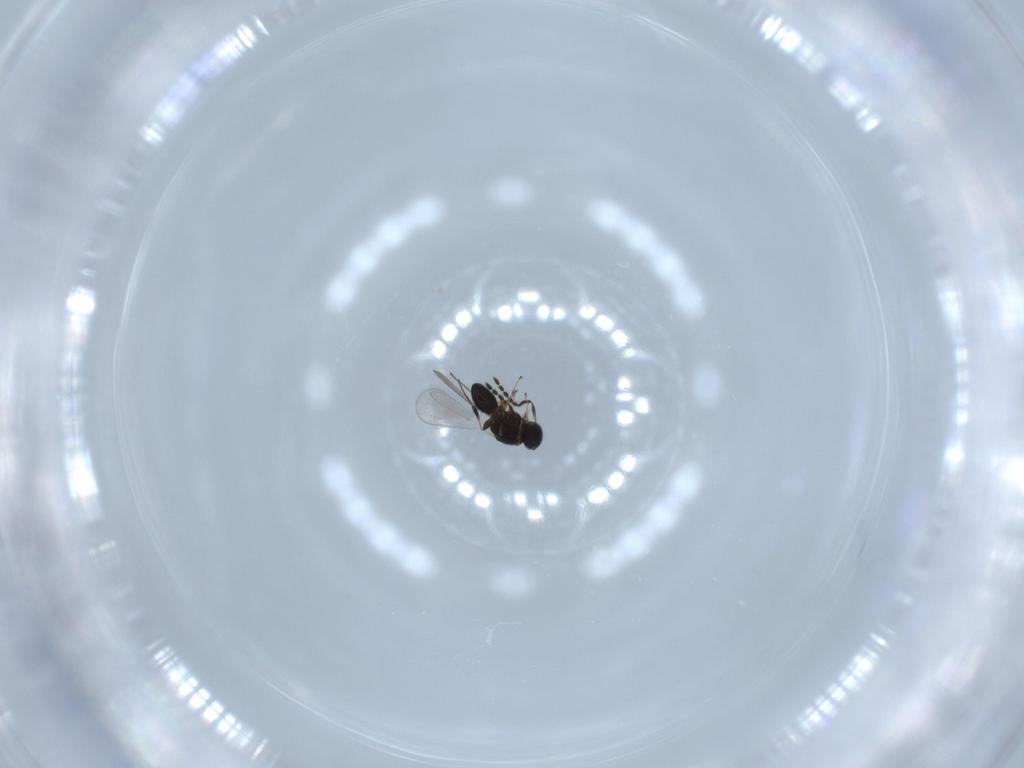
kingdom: Animalia
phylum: Arthropoda
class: Insecta
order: Hymenoptera
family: Platygastridae
